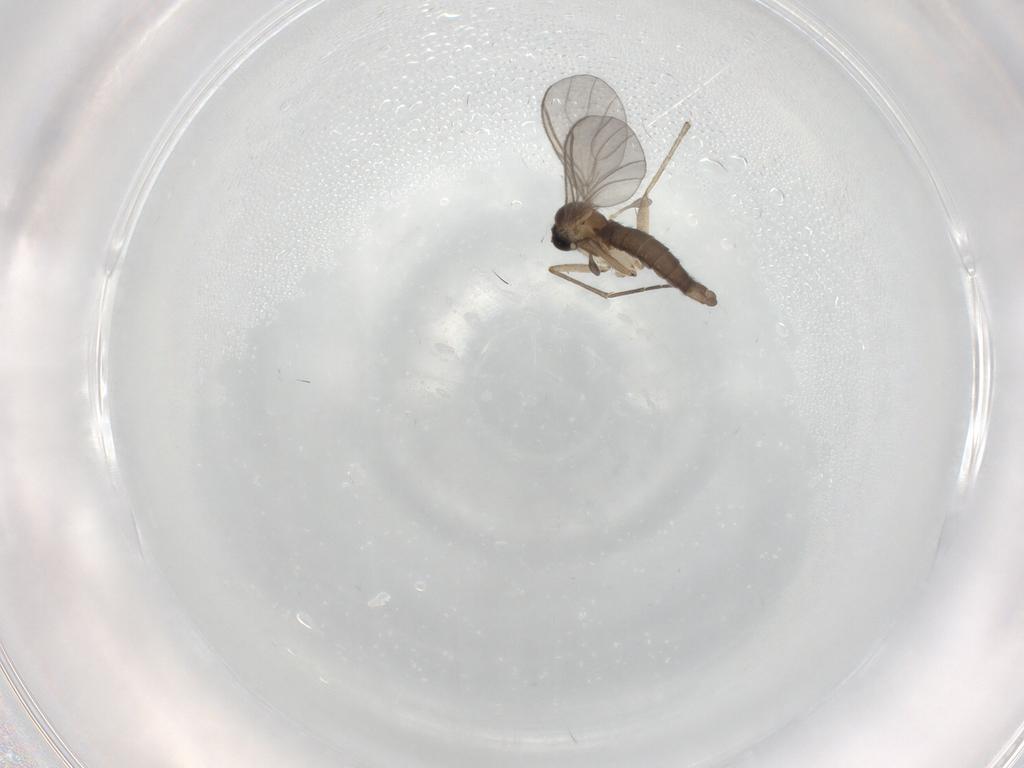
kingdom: Animalia
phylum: Arthropoda
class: Insecta
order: Diptera
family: Sciaridae
